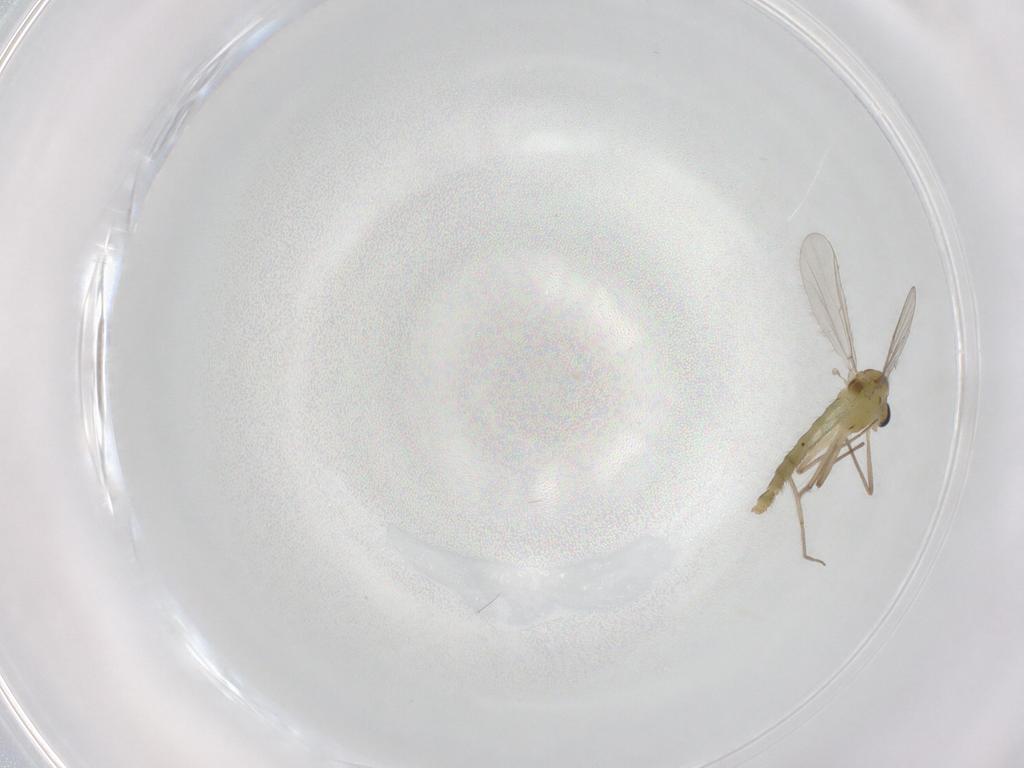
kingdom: Animalia
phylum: Arthropoda
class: Insecta
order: Diptera
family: Chironomidae
